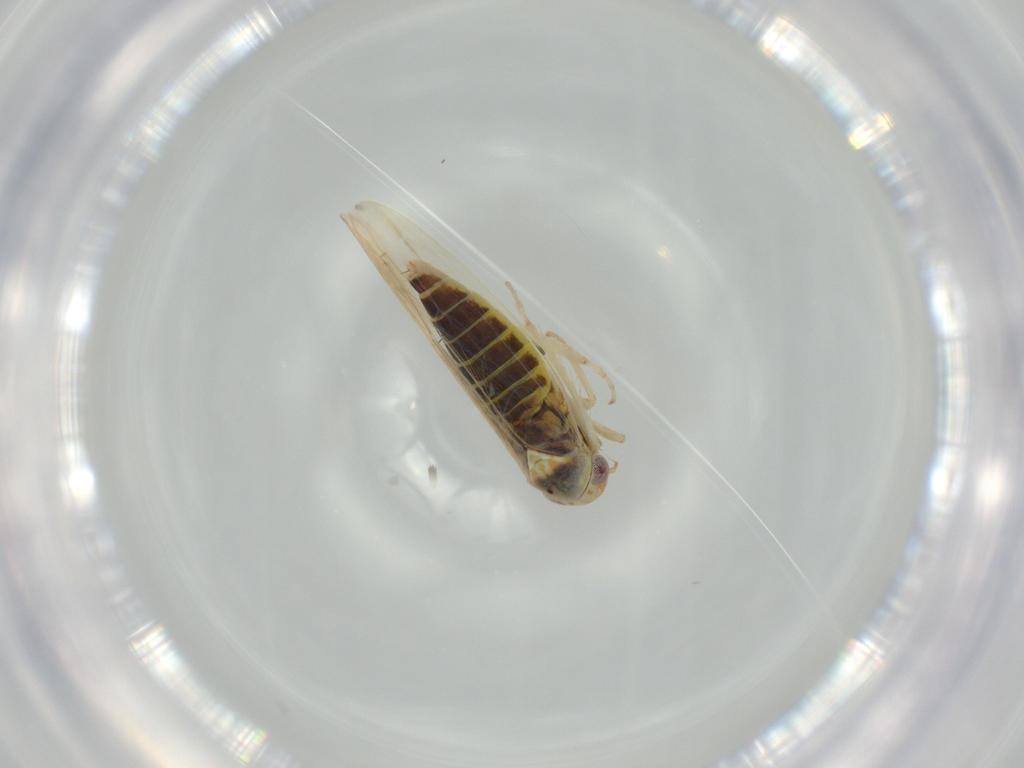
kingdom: Animalia
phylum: Arthropoda
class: Insecta
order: Hemiptera
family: Cicadellidae
